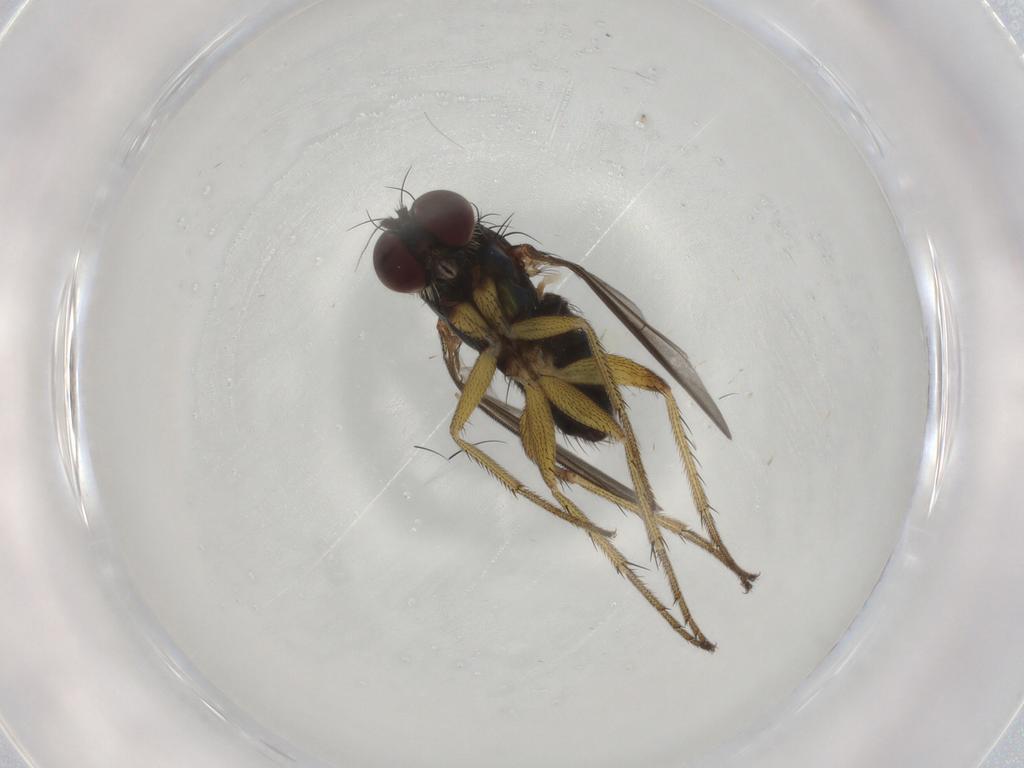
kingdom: Animalia
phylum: Arthropoda
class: Insecta
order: Diptera
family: Dolichopodidae
